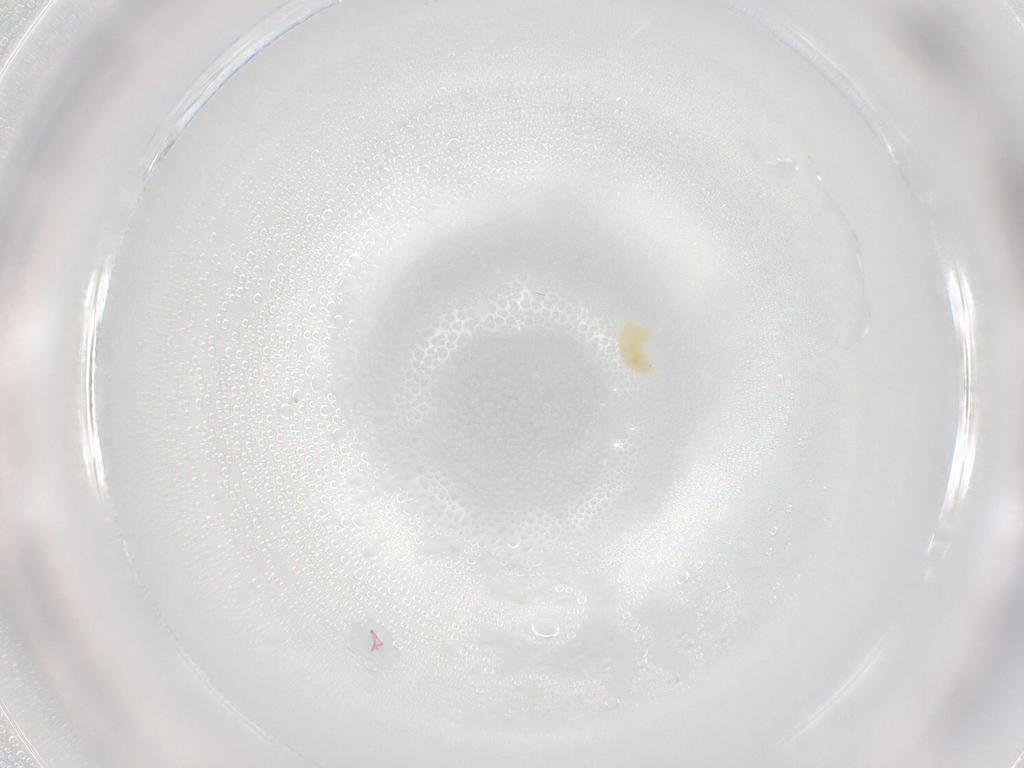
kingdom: Animalia
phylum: Arthropoda
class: Arachnida
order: Trombidiformes
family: Eupodidae
